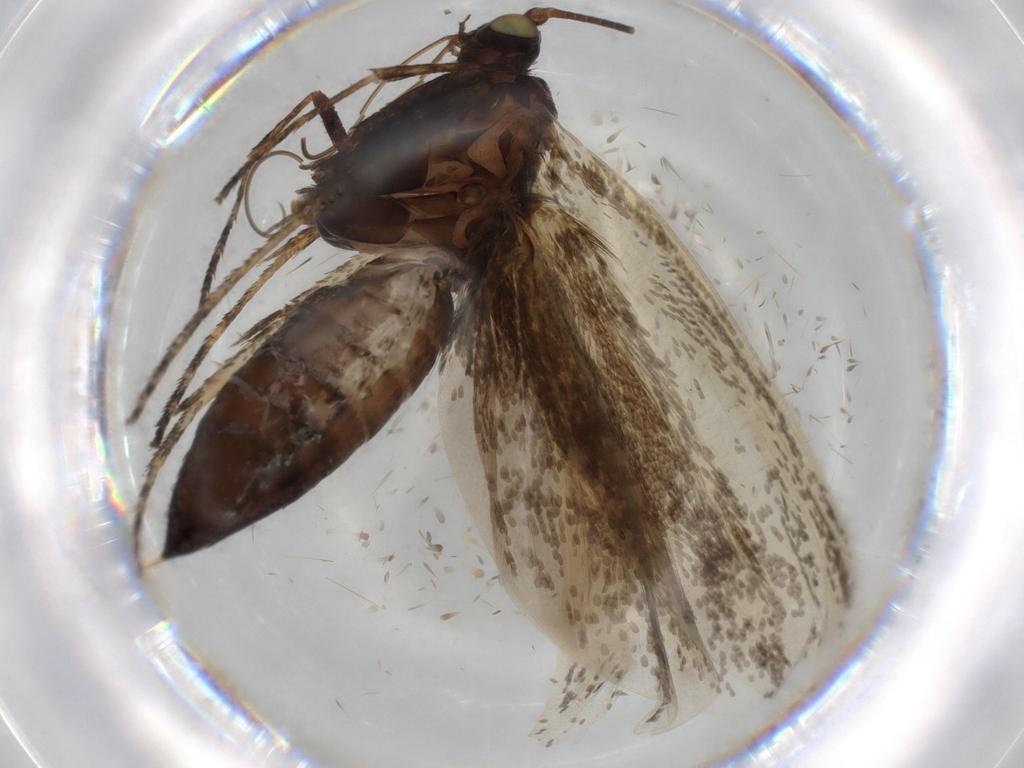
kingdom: Animalia
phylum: Arthropoda
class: Insecta
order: Lepidoptera
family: Adelidae
